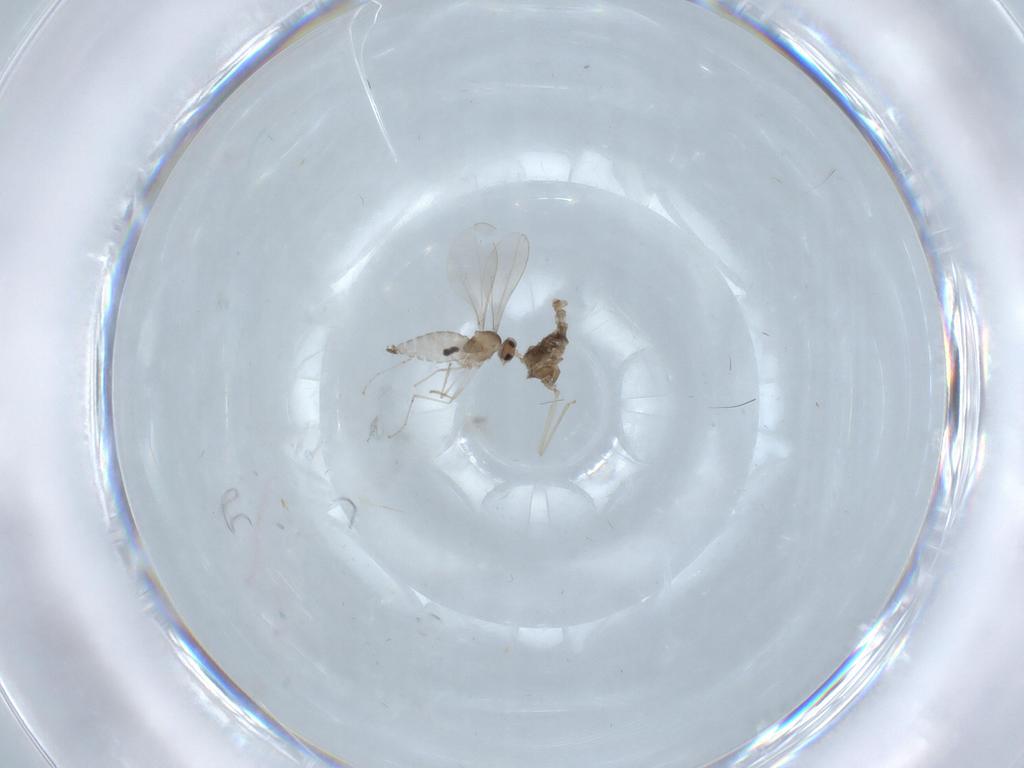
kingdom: Animalia
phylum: Arthropoda
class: Insecta
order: Diptera
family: Cecidomyiidae
